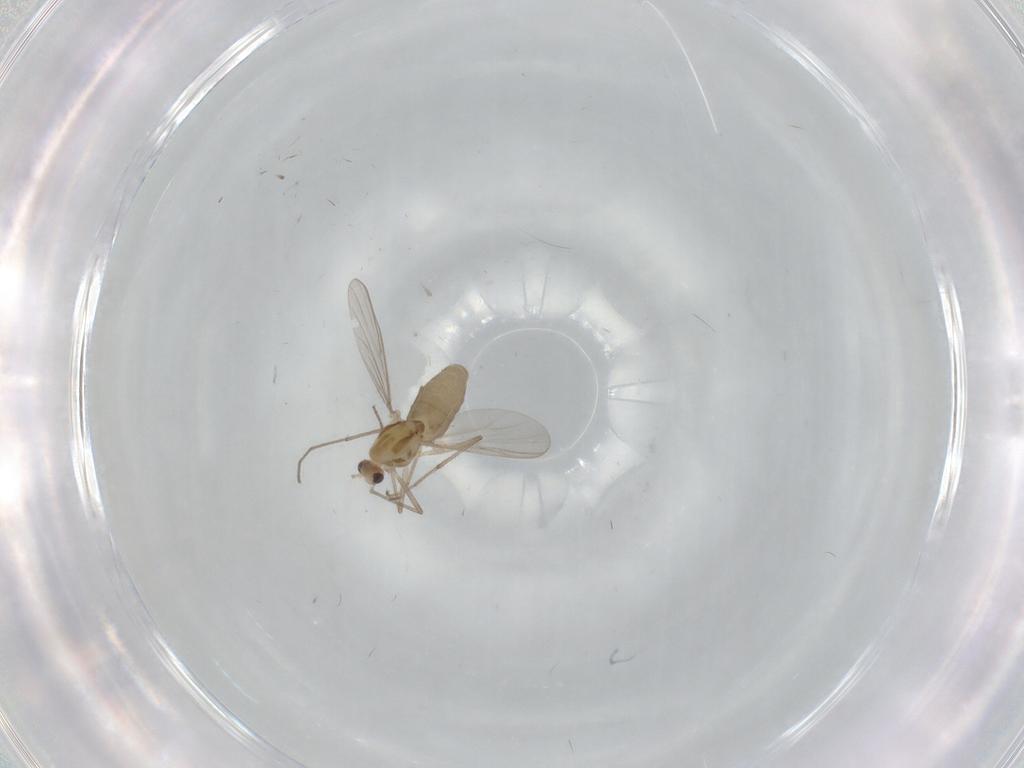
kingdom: Animalia
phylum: Arthropoda
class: Insecta
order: Diptera
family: Chironomidae
